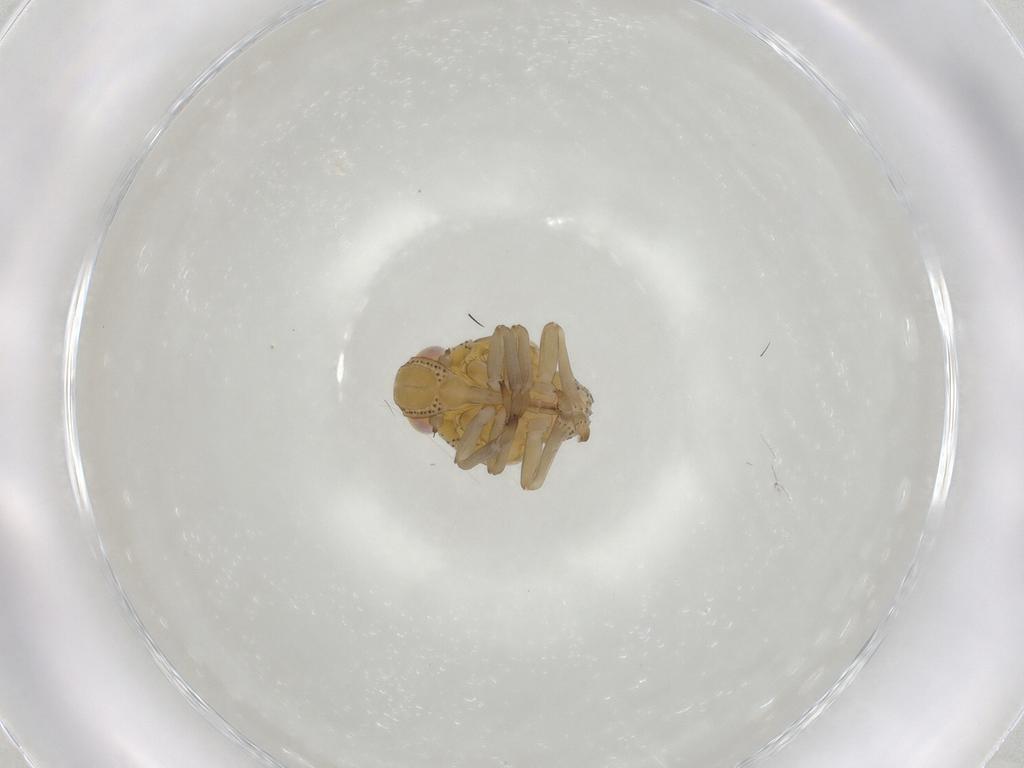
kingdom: Animalia
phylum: Arthropoda
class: Insecta
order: Hemiptera
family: Tropiduchidae
